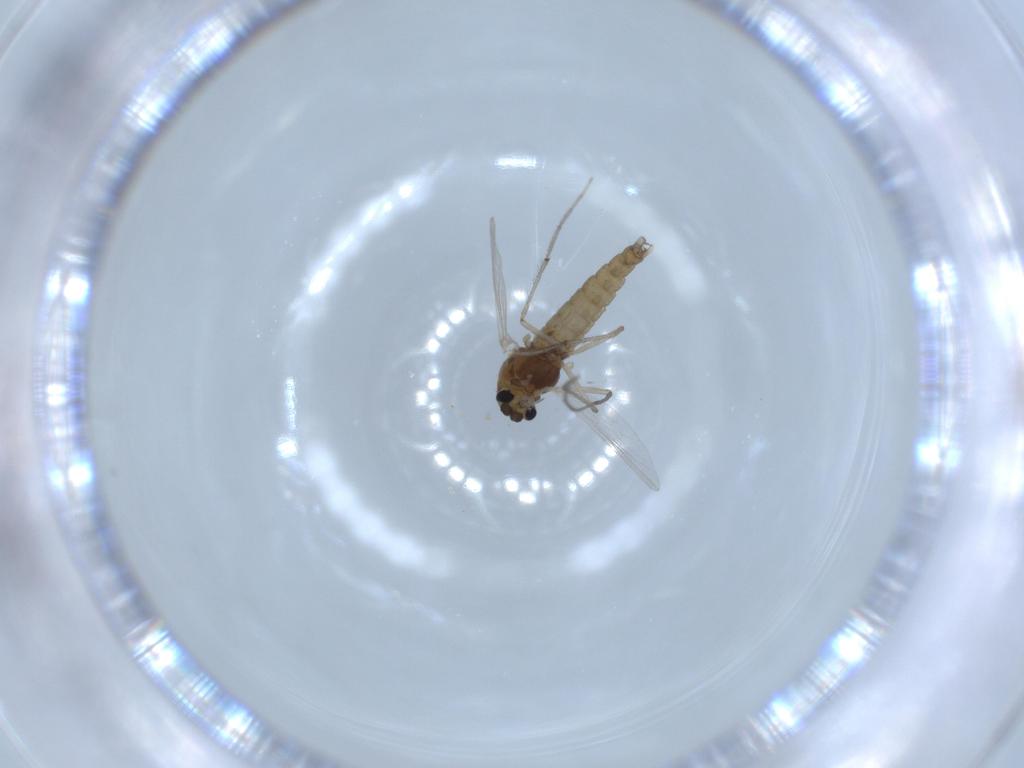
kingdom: Animalia
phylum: Arthropoda
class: Insecta
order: Diptera
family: Chironomidae
